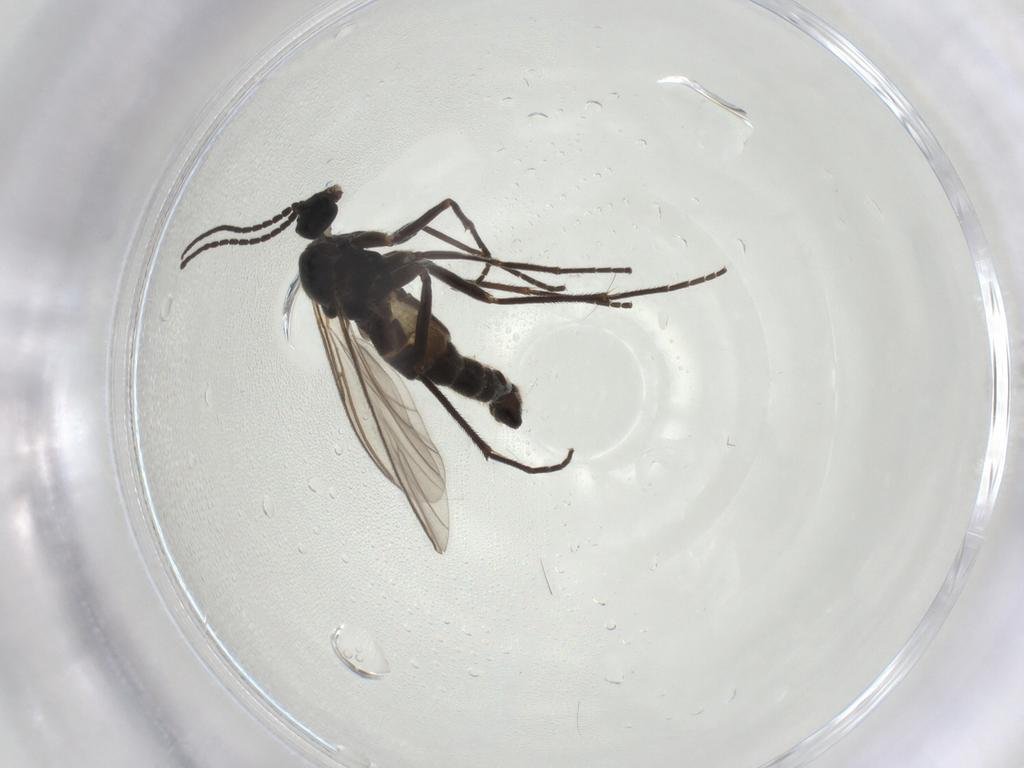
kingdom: Animalia
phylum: Arthropoda
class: Insecta
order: Diptera
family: Sciaridae
